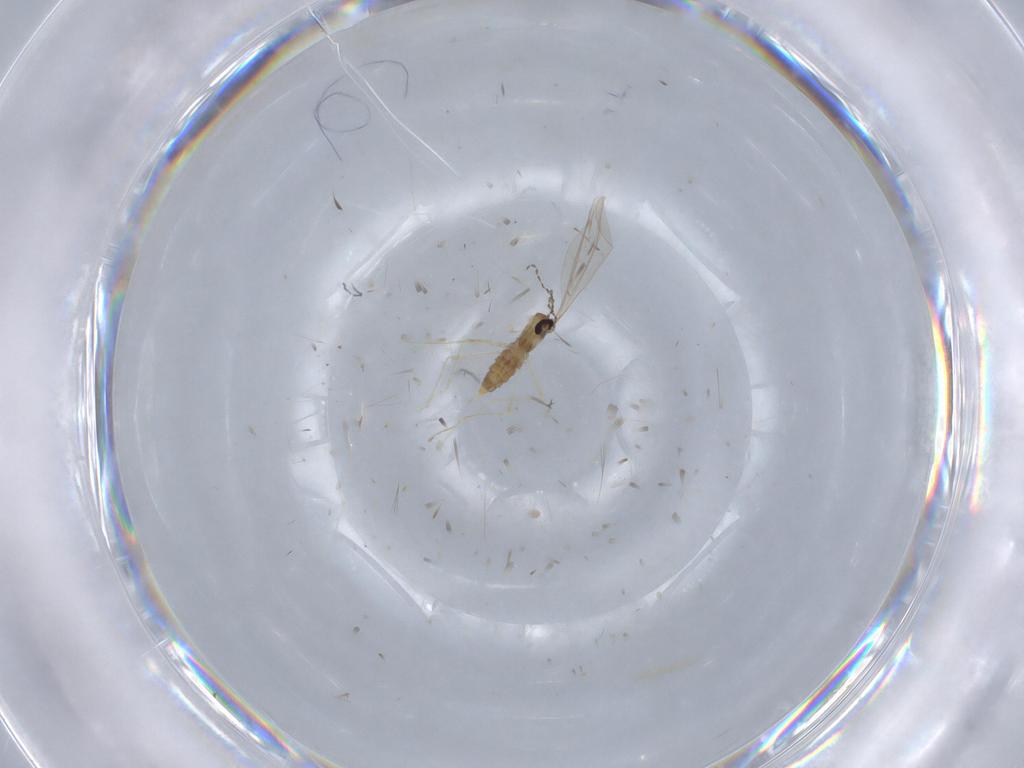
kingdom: Animalia
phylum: Arthropoda
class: Insecta
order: Diptera
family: Cecidomyiidae
